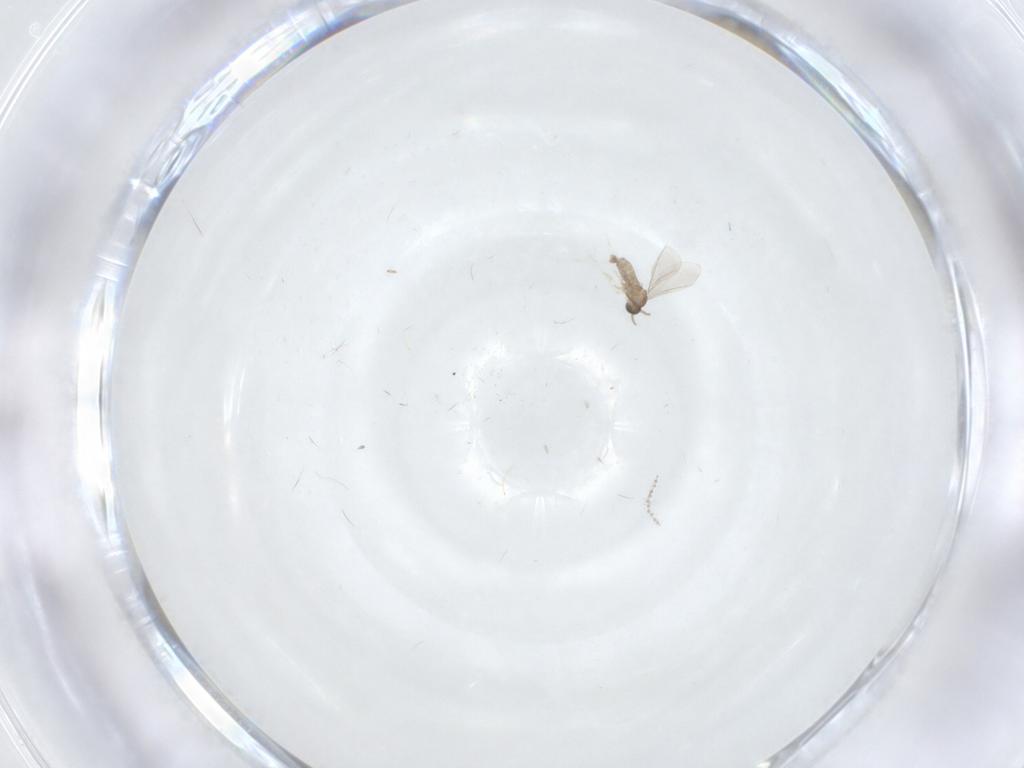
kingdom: Animalia
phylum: Arthropoda
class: Insecta
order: Diptera
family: Cecidomyiidae
